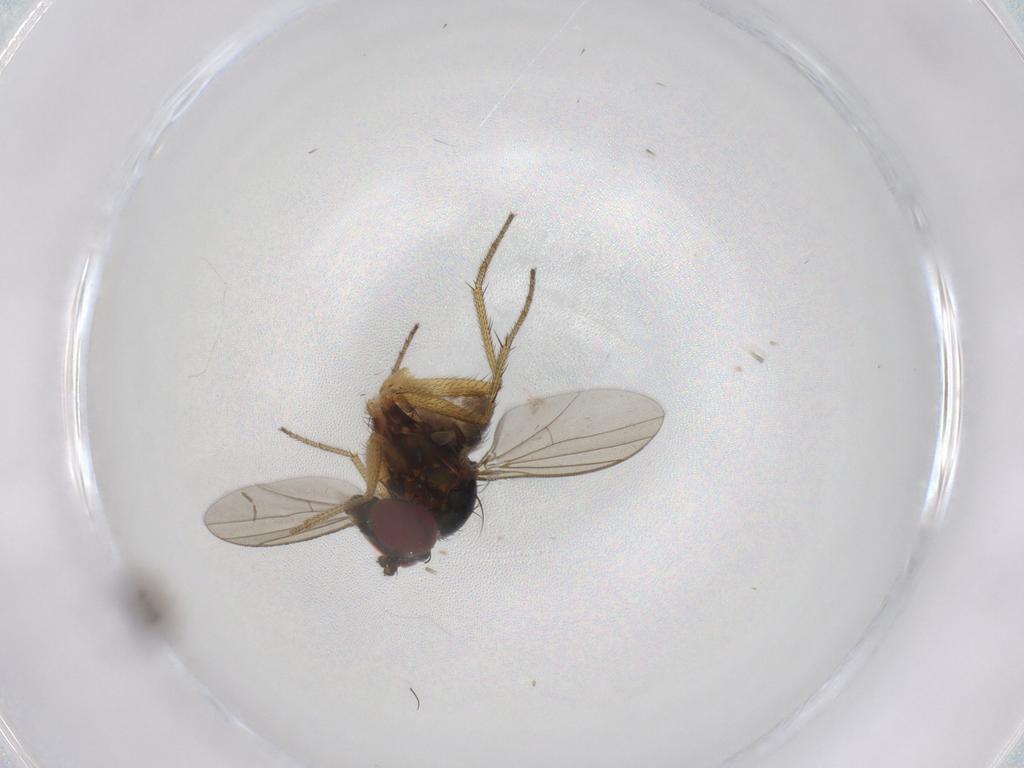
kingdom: Animalia
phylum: Arthropoda
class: Insecta
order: Diptera
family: Dolichopodidae
